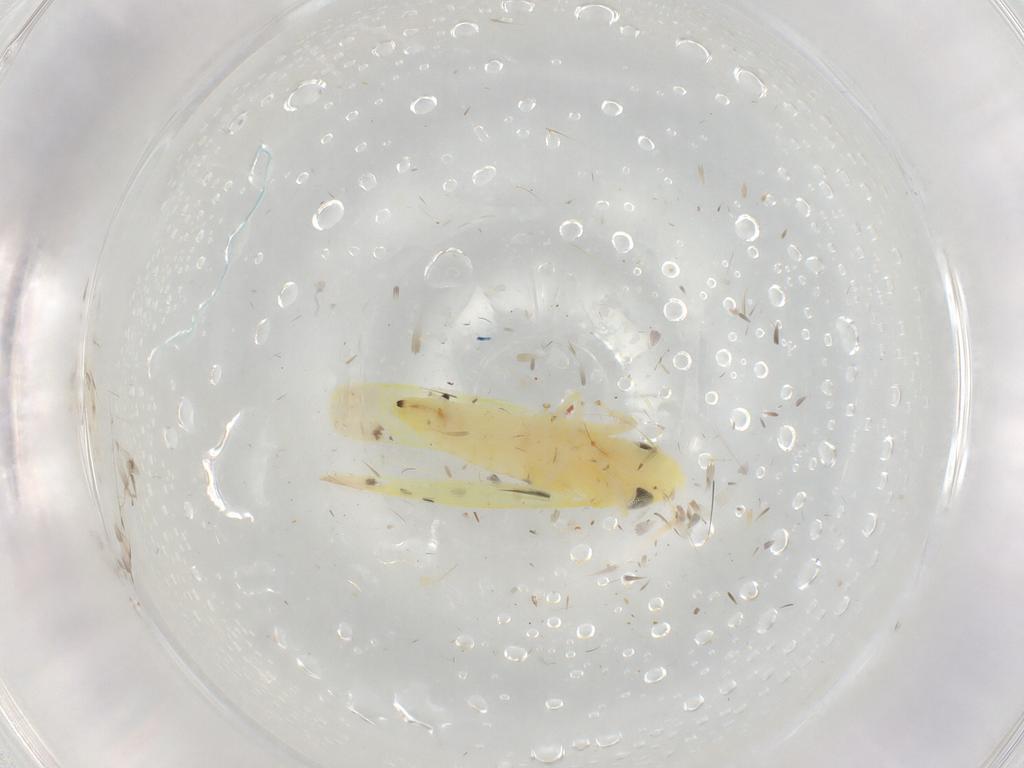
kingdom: Animalia
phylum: Arthropoda
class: Insecta
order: Hemiptera
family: Cicadellidae
